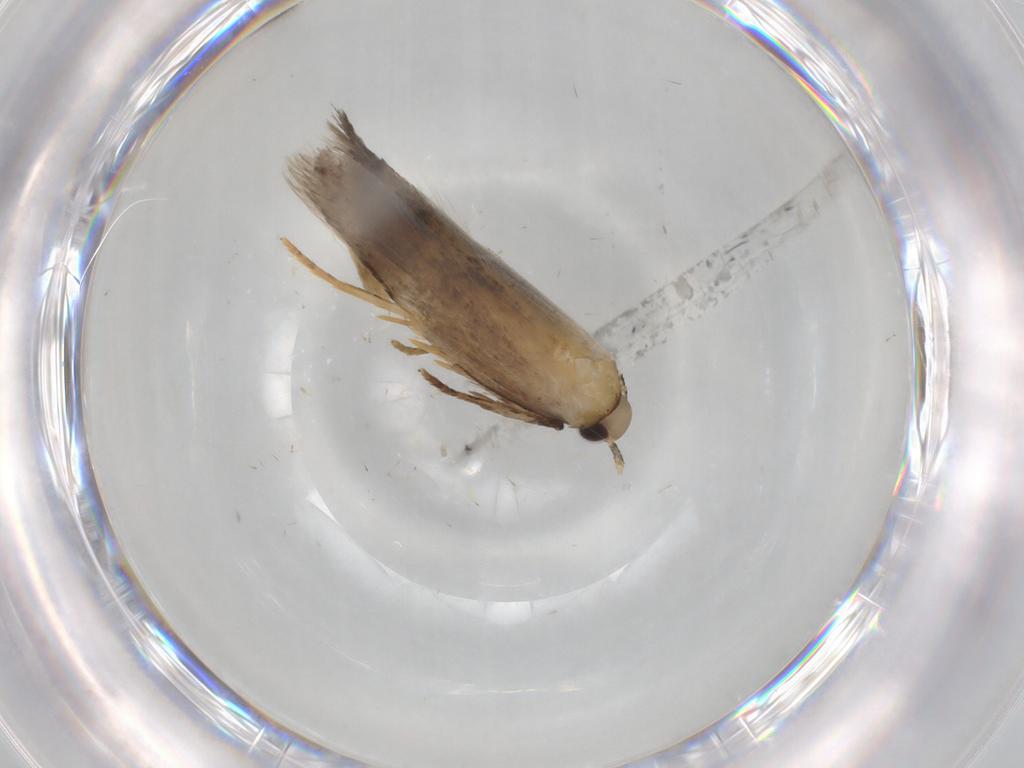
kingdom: Animalia
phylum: Arthropoda
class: Insecta
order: Lepidoptera
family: Autostichidae
